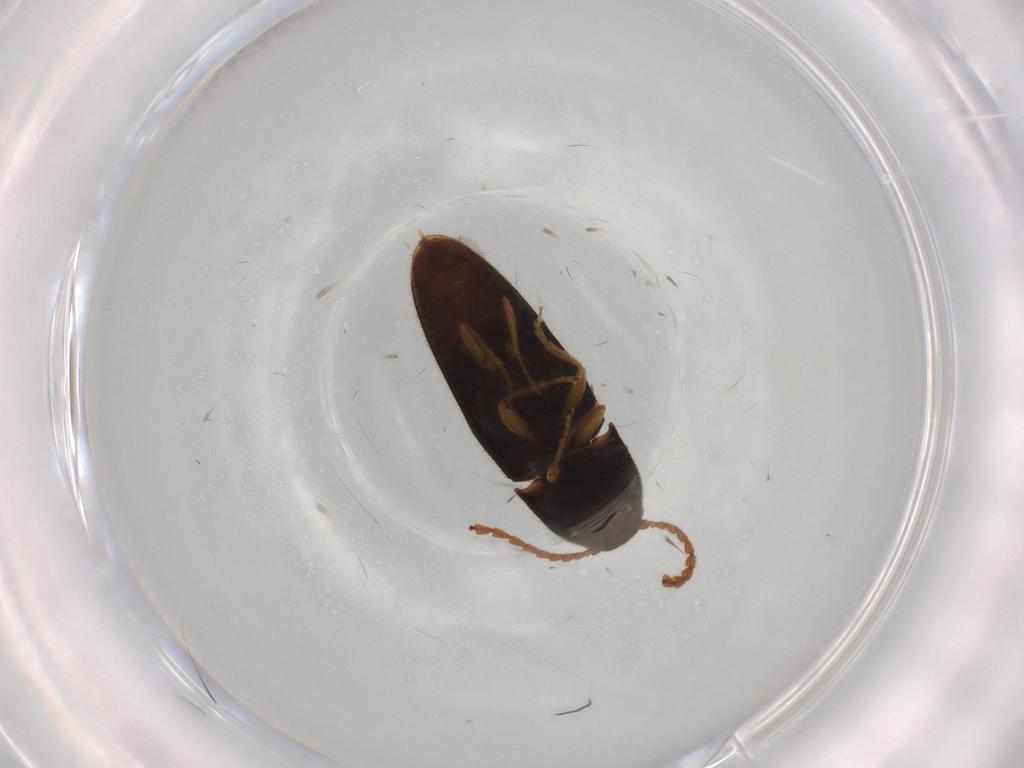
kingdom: Animalia
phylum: Arthropoda
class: Insecta
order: Coleoptera
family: Elateridae
